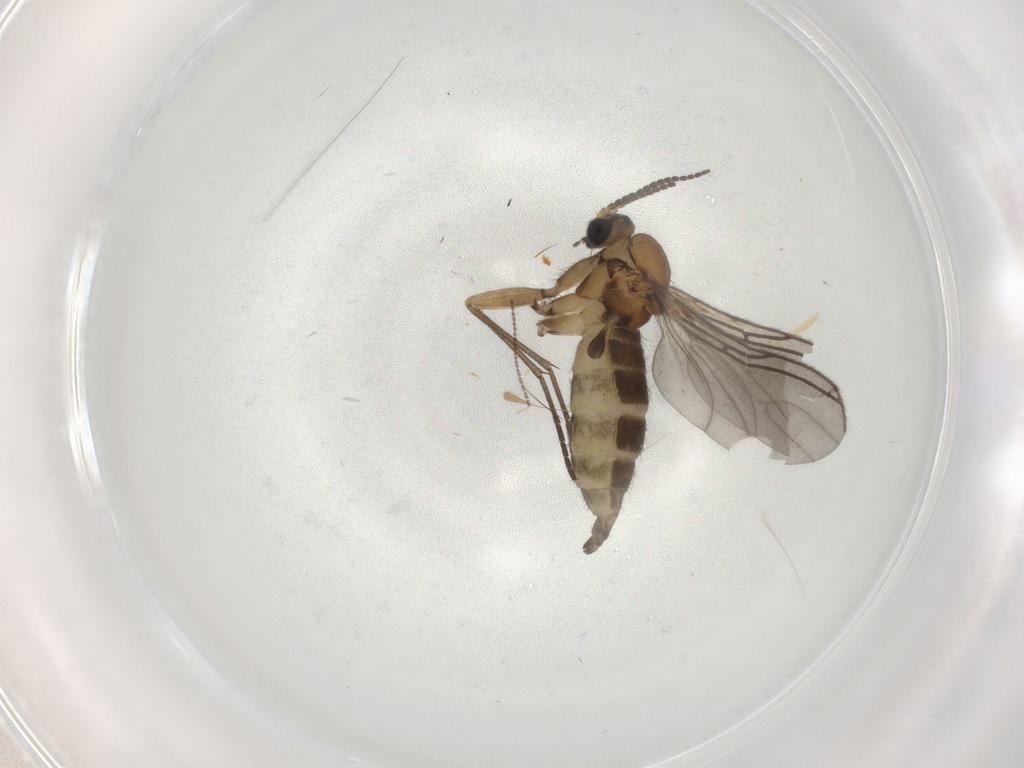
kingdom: Animalia
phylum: Arthropoda
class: Insecta
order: Diptera
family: Sciaridae
